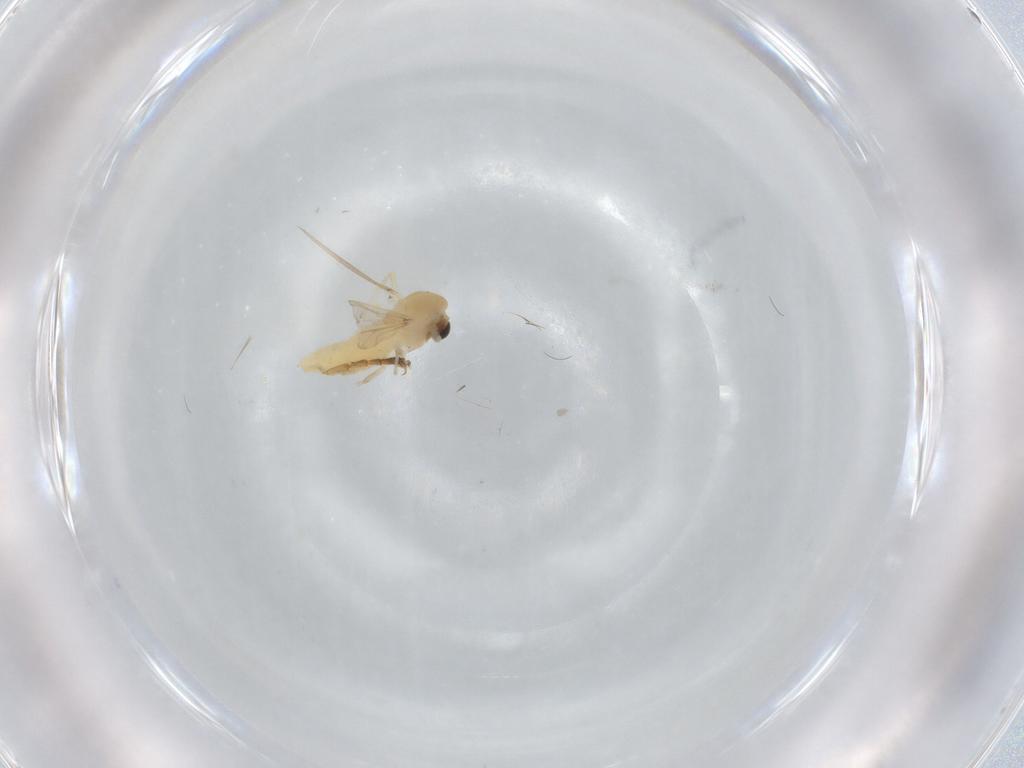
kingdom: Animalia
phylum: Arthropoda
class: Insecta
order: Diptera
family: Chironomidae
